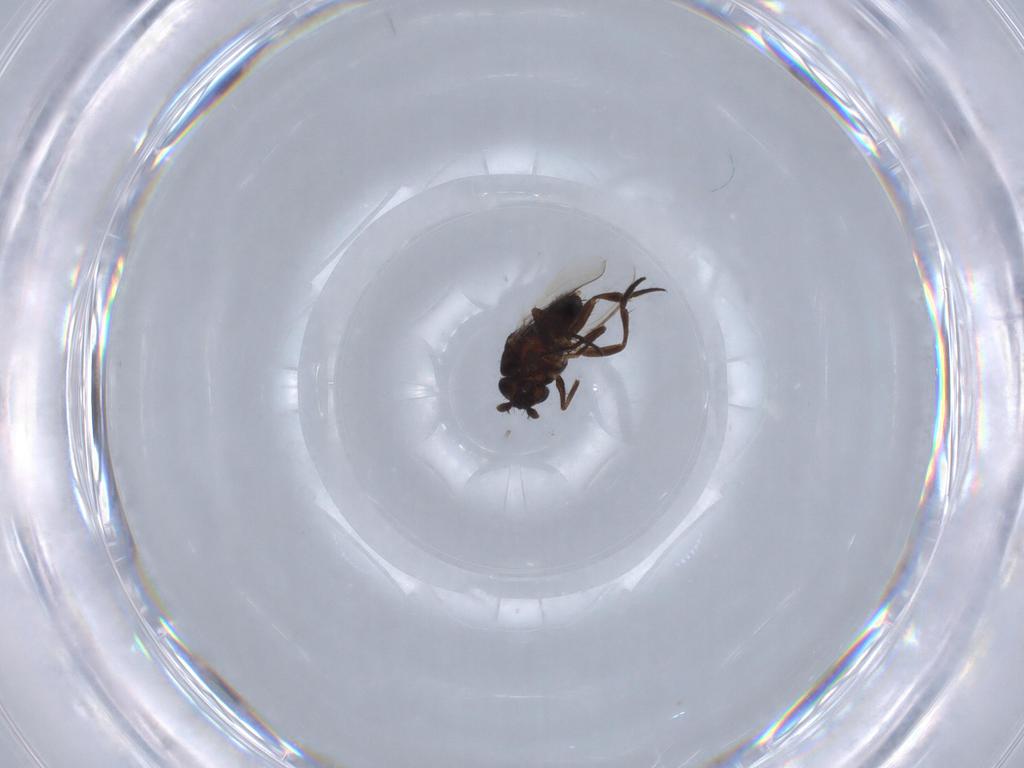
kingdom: Animalia
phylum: Arthropoda
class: Insecta
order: Diptera
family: Sphaeroceridae
